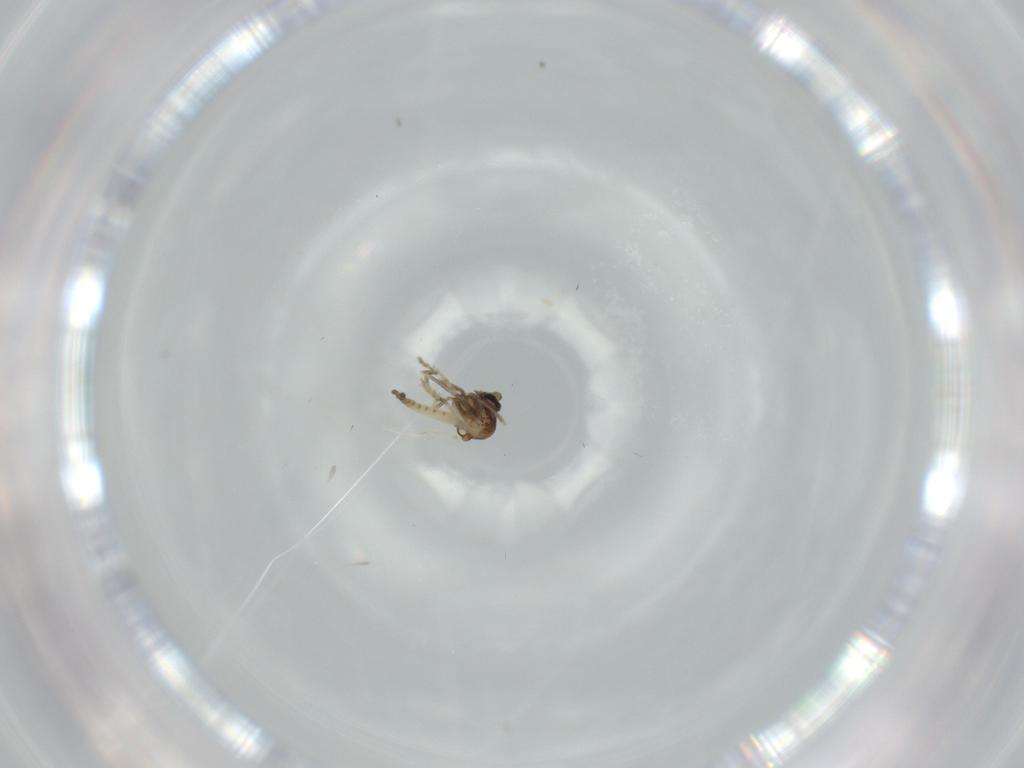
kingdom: Animalia
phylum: Arthropoda
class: Insecta
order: Diptera
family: Ceratopogonidae
